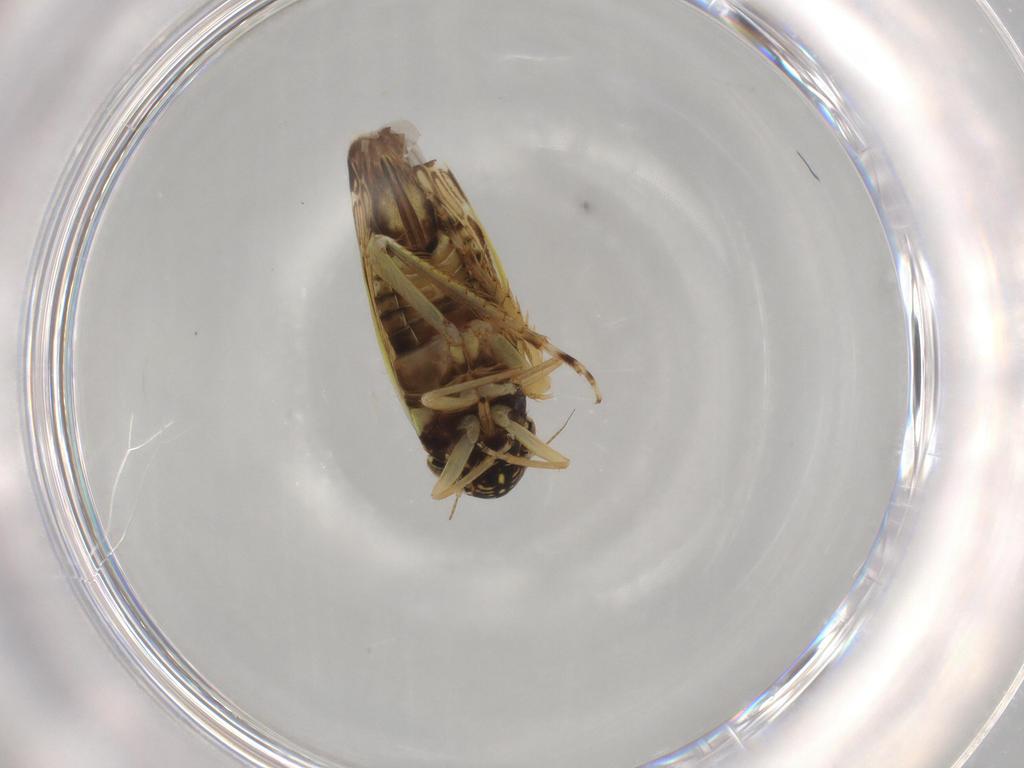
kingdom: Animalia
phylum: Arthropoda
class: Insecta
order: Hemiptera
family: Cicadellidae
